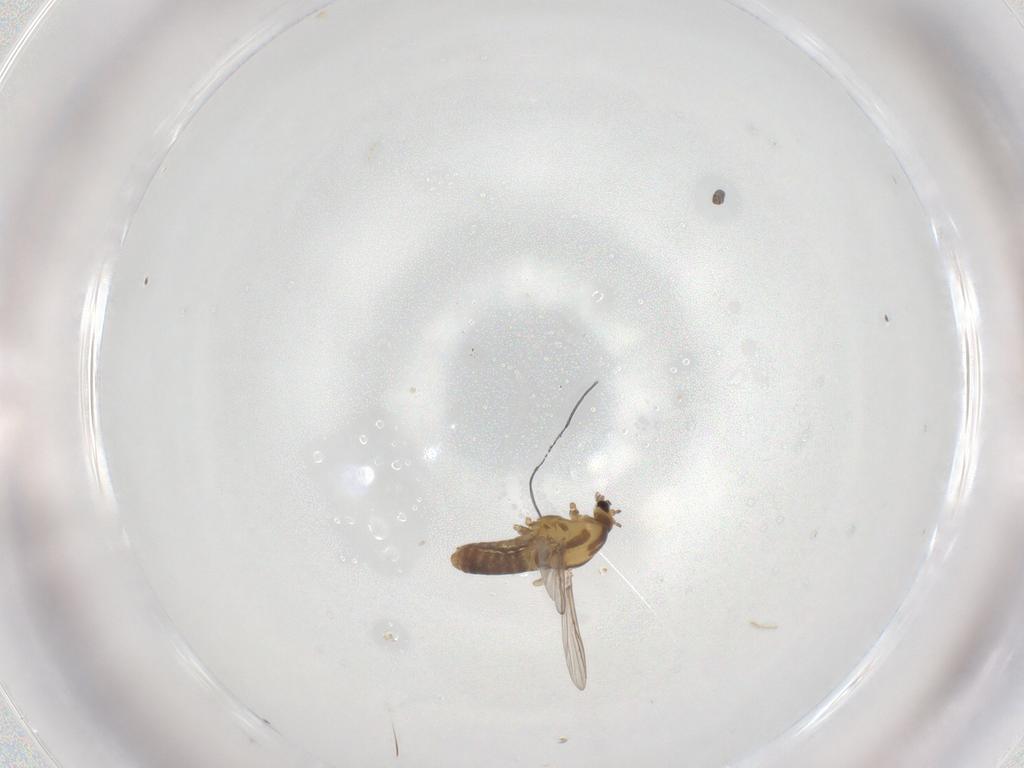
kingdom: Animalia
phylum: Arthropoda
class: Insecta
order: Diptera
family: Chironomidae
